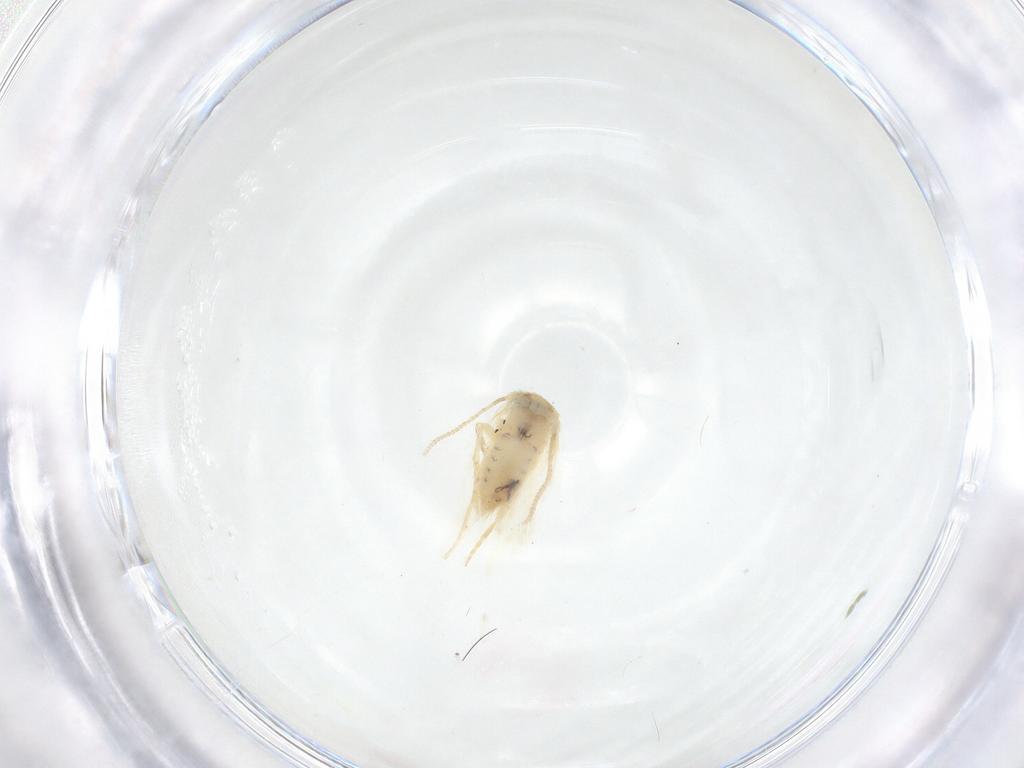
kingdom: Animalia
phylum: Arthropoda
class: Insecta
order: Lepidoptera
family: Nepticulidae
